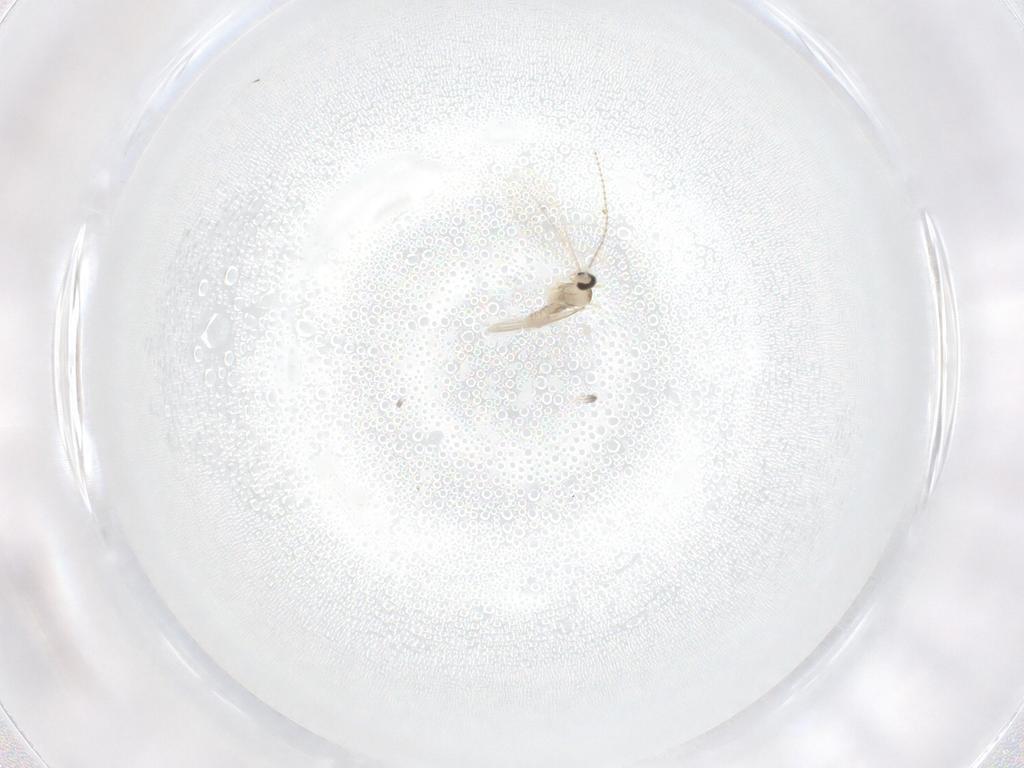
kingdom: Animalia
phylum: Arthropoda
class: Insecta
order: Diptera
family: Cecidomyiidae
